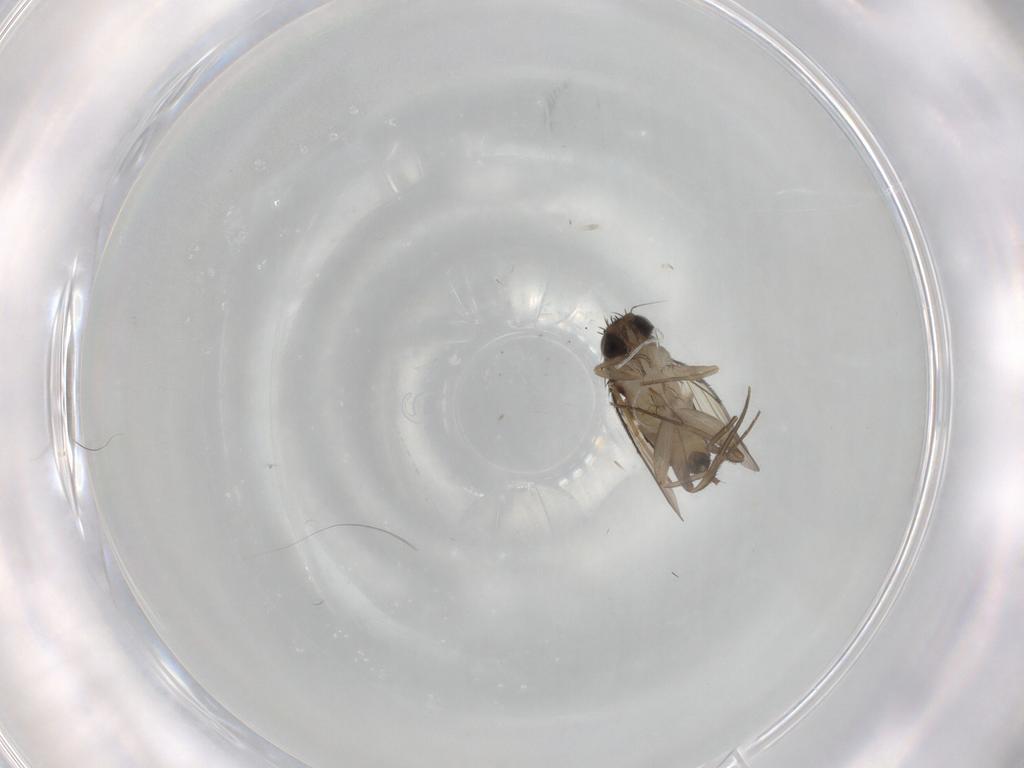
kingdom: Animalia
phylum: Arthropoda
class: Insecta
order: Diptera
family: Phoridae
